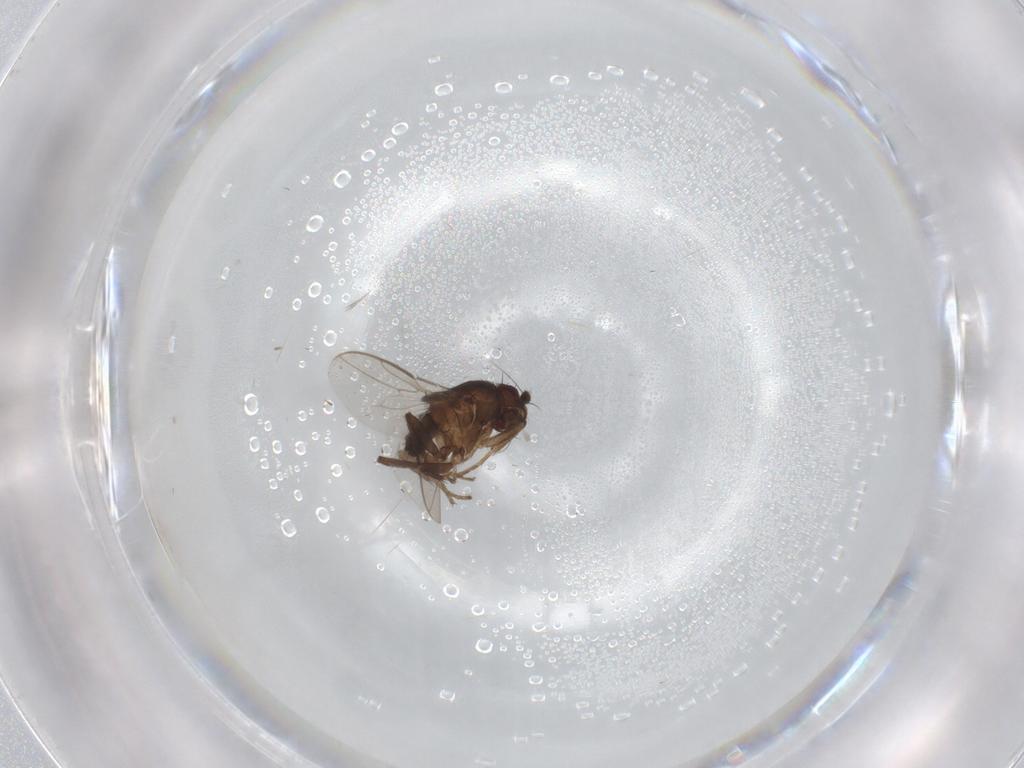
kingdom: Animalia
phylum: Arthropoda
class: Insecta
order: Diptera
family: Sphaeroceridae
